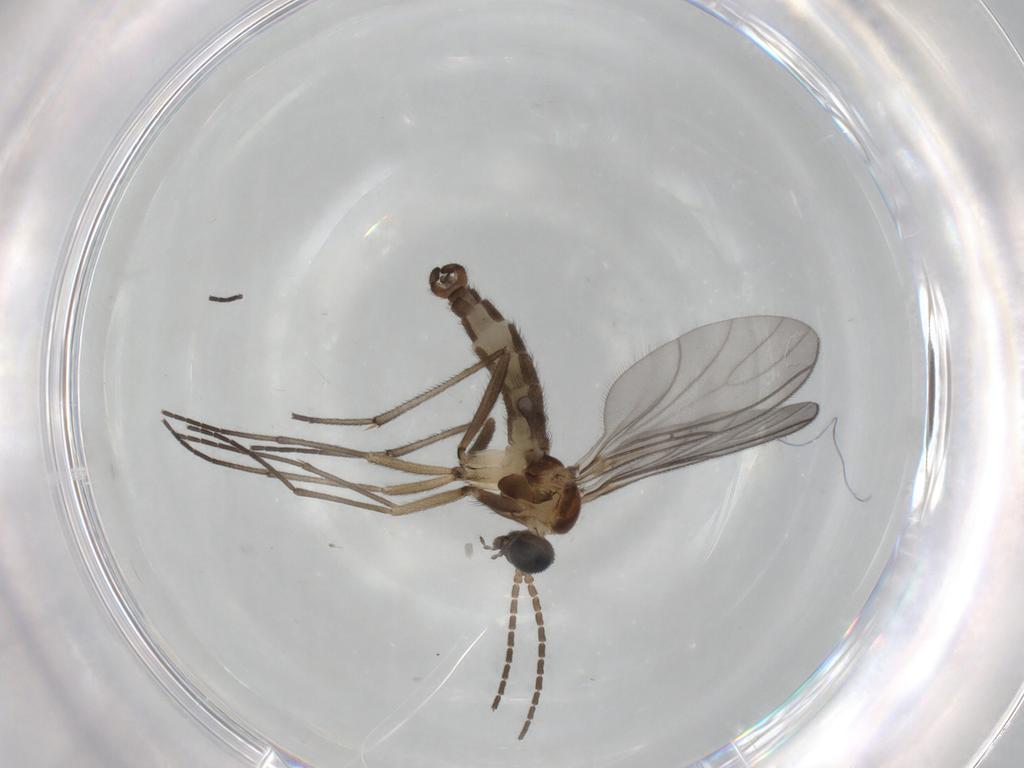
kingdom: Animalia
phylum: Arthropoda
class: Insecta
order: Diptera
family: Sciaridae
